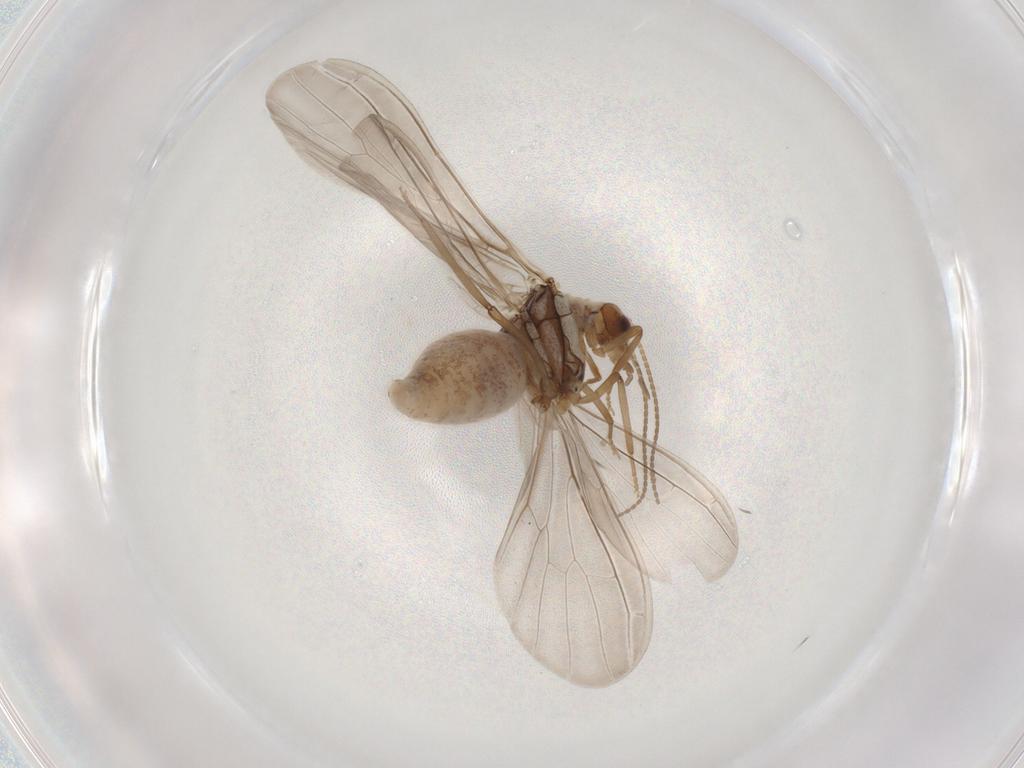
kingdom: Animalia
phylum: Arthropoda
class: Insecta
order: Neuroptera
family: Coniopterygidae
